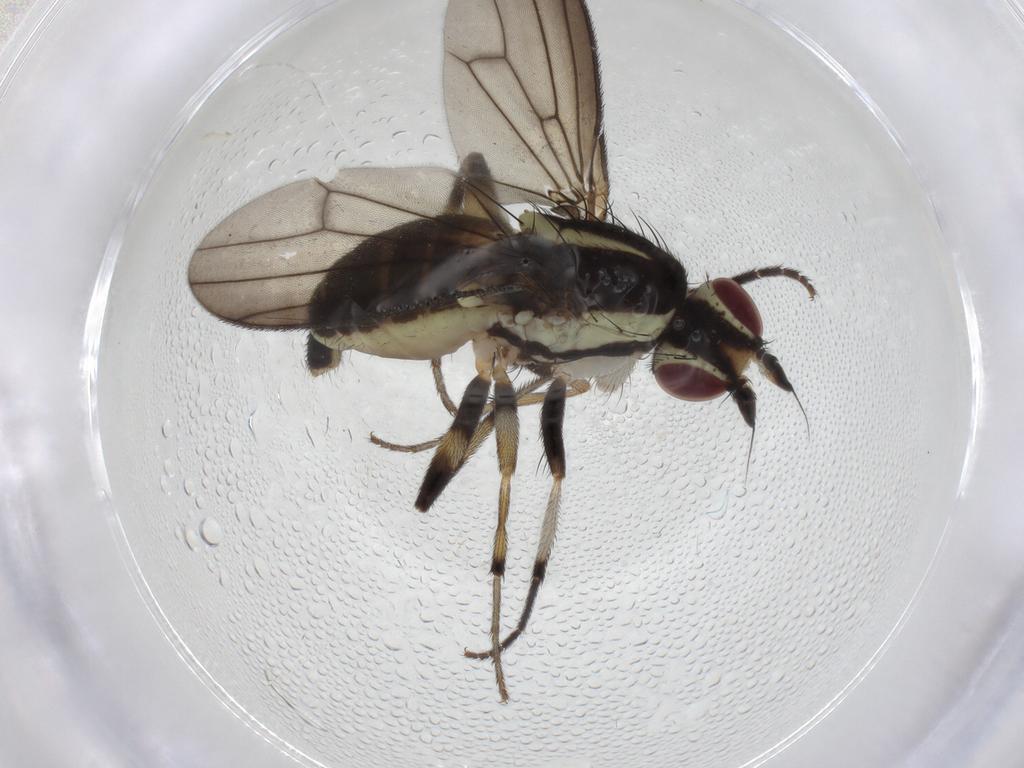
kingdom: Animalia
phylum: Arthropoda
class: Insecta
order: Diptera
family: Pseudopomyzidae
